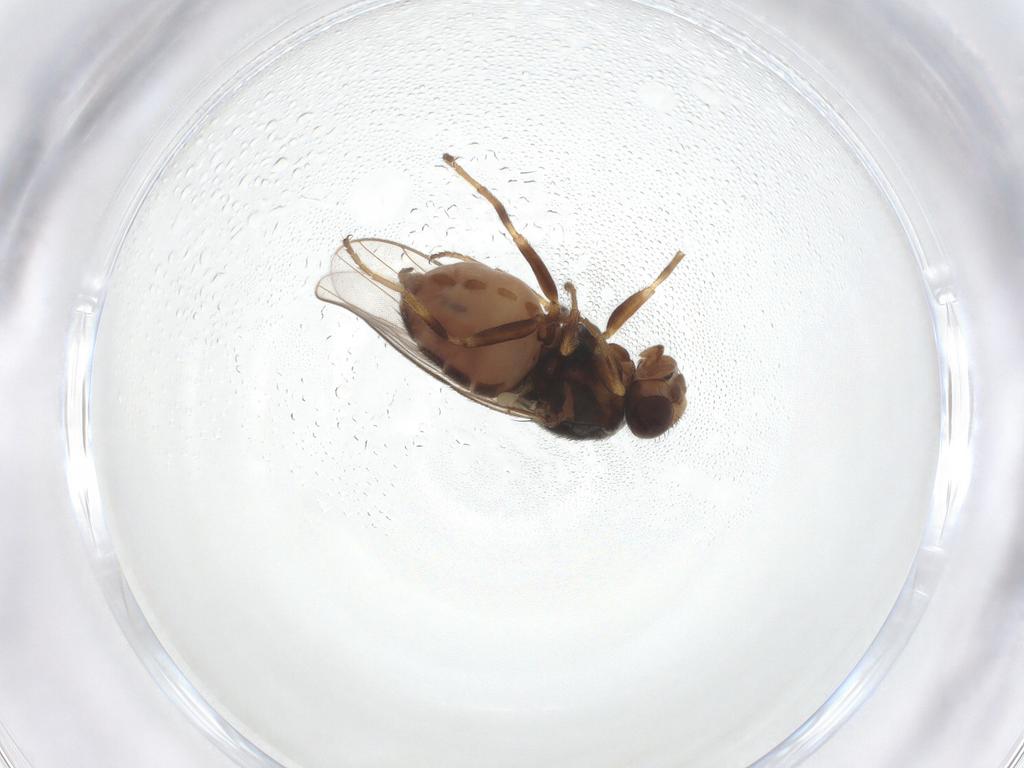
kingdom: Animalia
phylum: Arthropoda
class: Insecta
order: Diptera
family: Chloropidae
